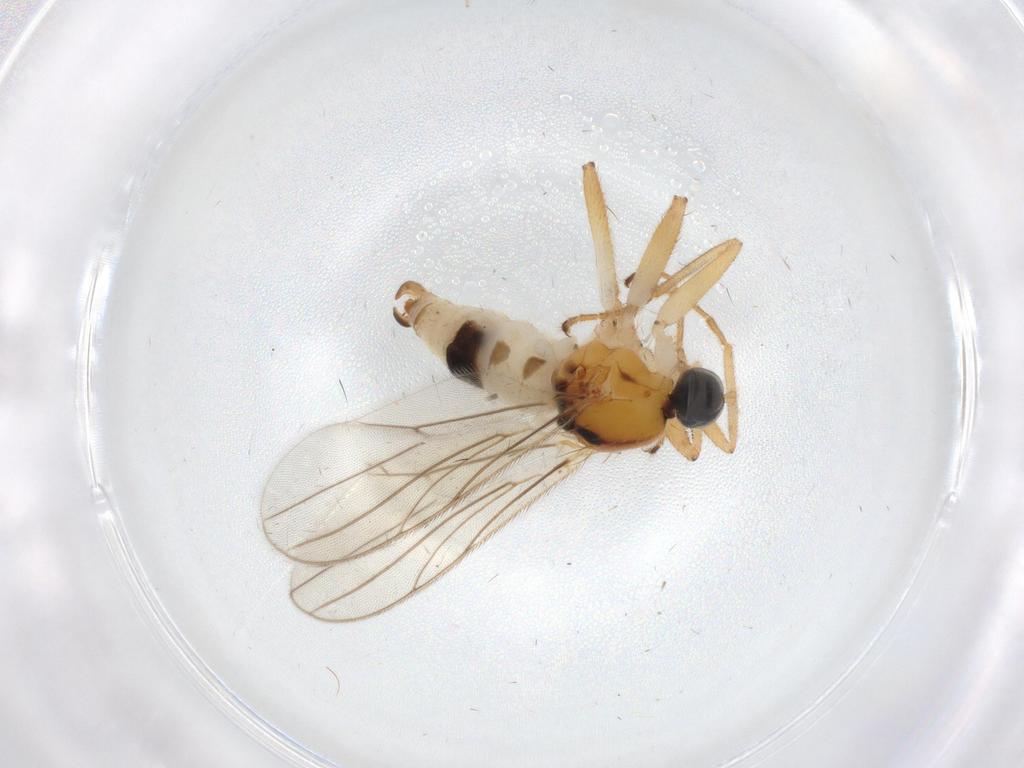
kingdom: Animalia
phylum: Arthropoda
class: Insecta
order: Diptera
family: Hybotidae
